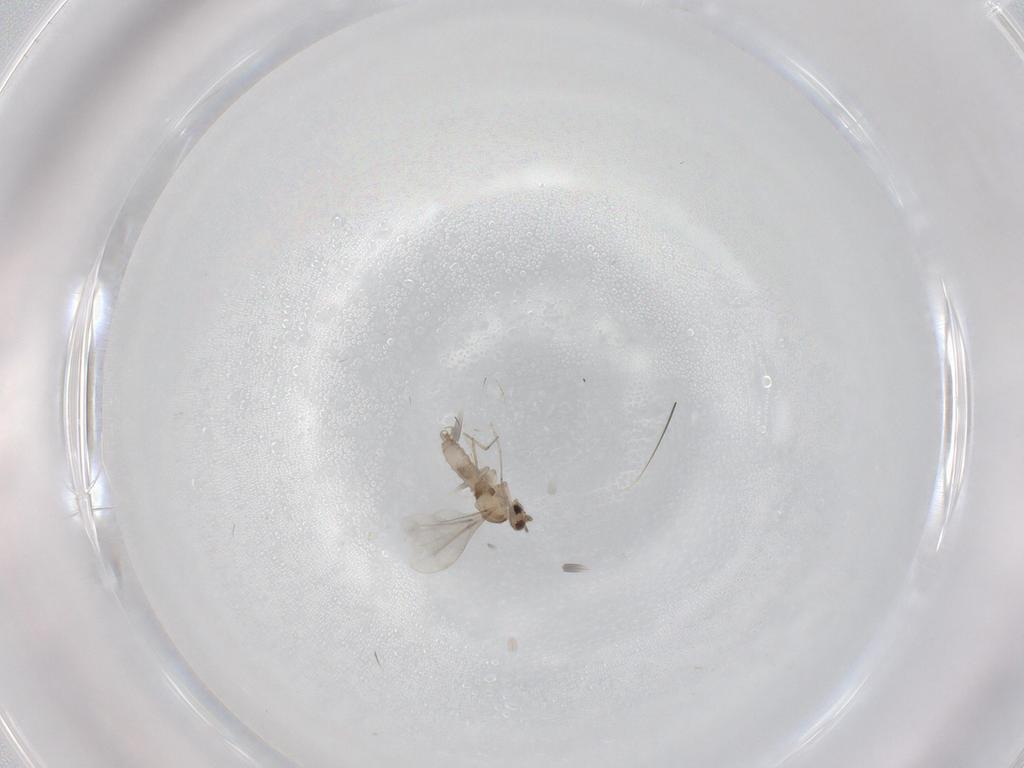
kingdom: Animalia
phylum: Arthropoda
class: Insecta
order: Diptera
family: Cecidomyiidae
